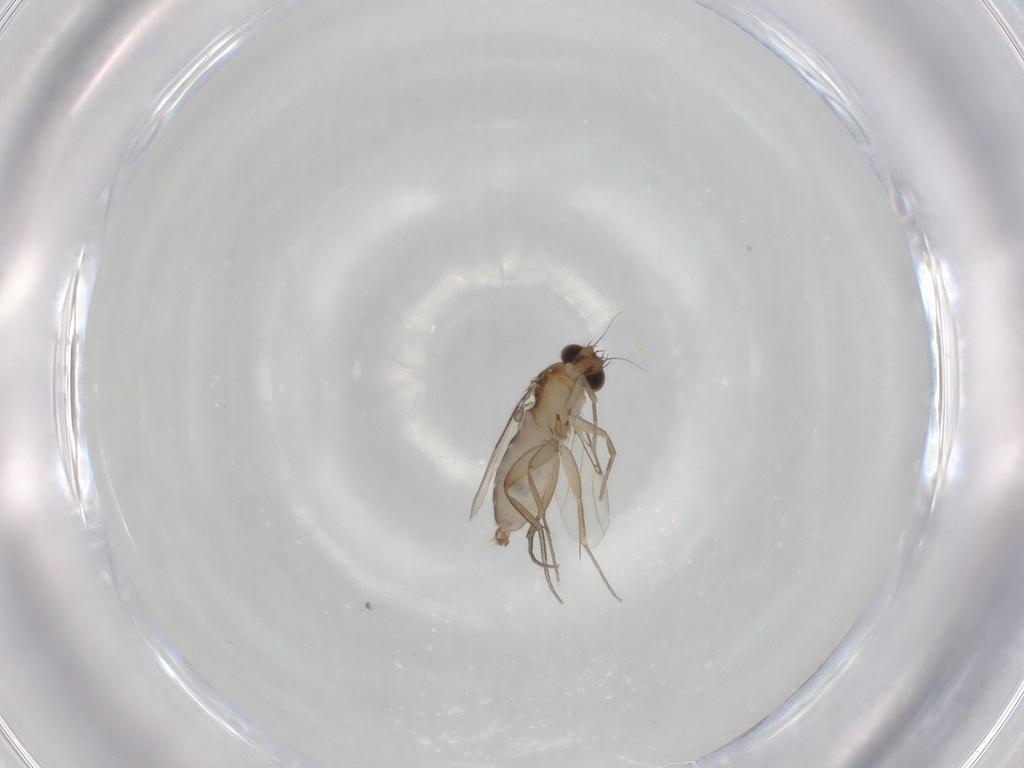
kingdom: Animalia
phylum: Arthropoda
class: Insecta
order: Diptera
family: Phoridae
